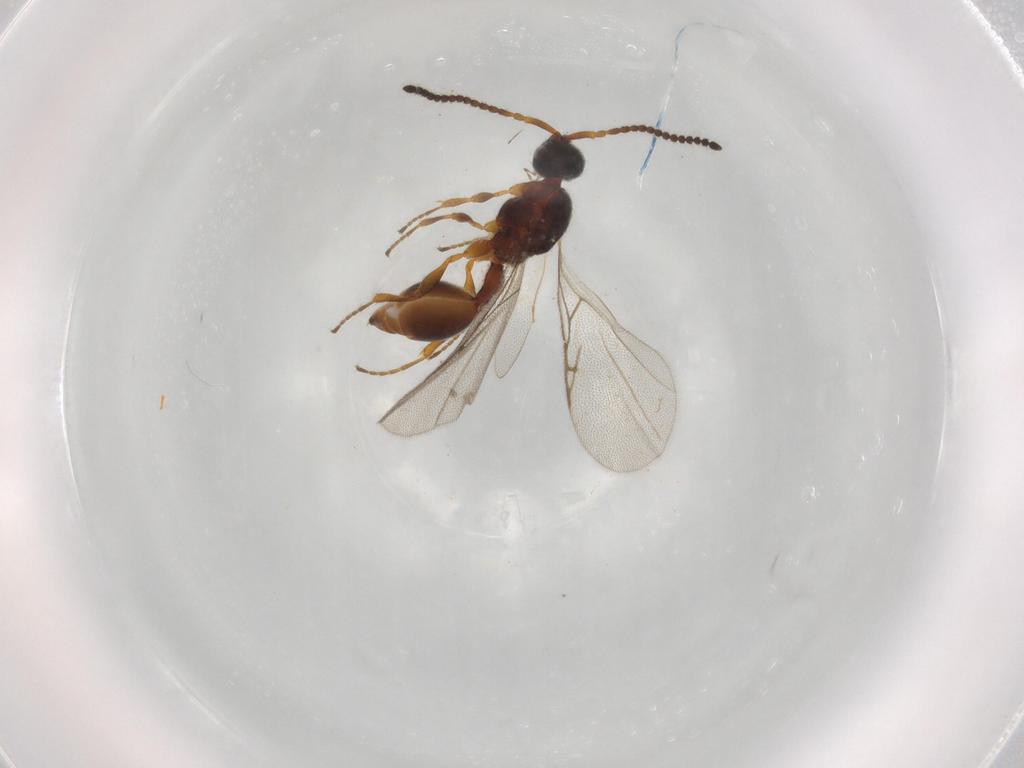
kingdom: Animalia
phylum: Arthropoda
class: Insecta
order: Hymenoptera
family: Diapriidae
